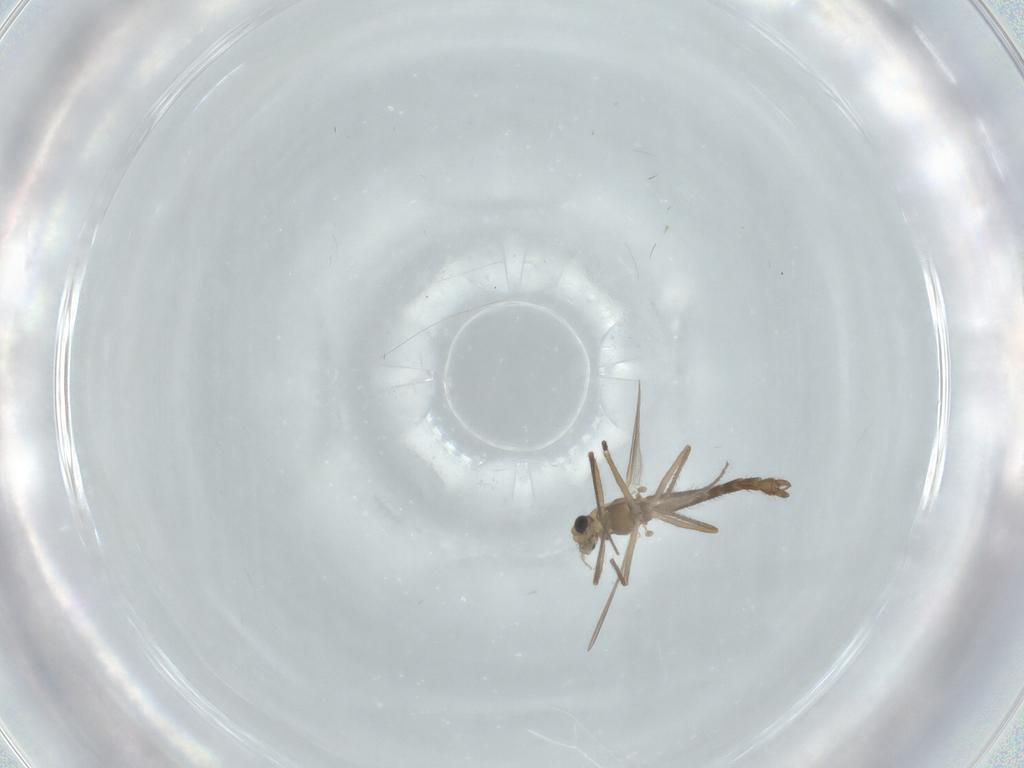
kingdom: Animalia
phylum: Arthropoda
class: Insecta
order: Diptera
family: Chironomidae
